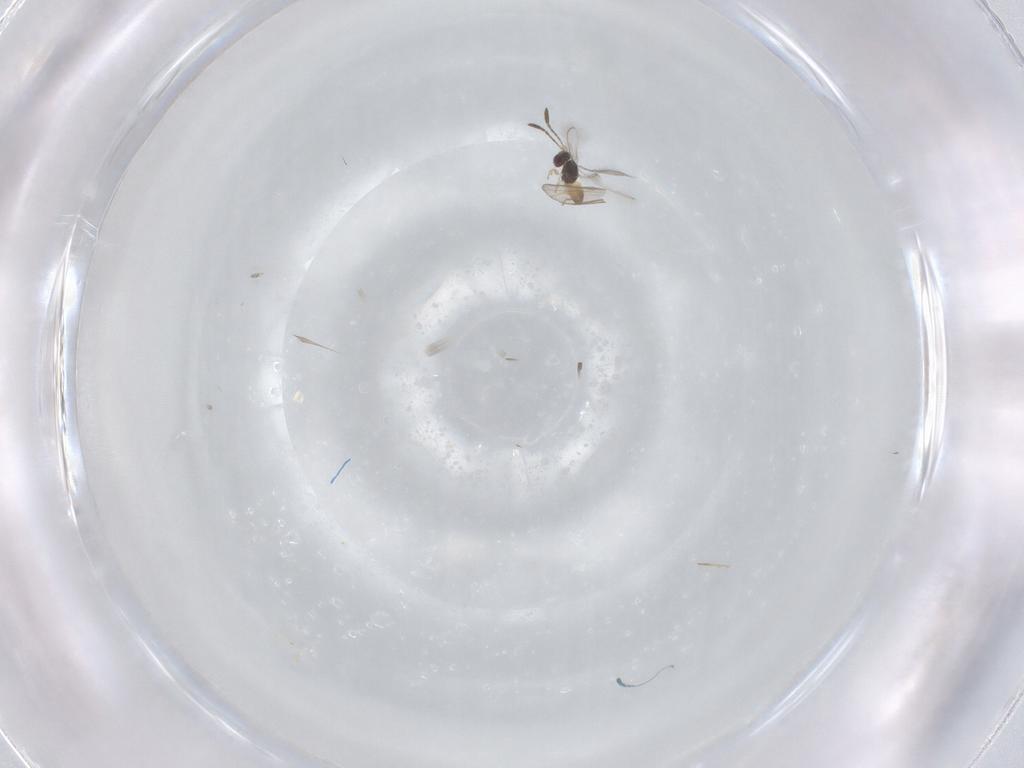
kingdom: Animalia
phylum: Arthropoda
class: Insecta
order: Hymenoptera
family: Mymaridae
